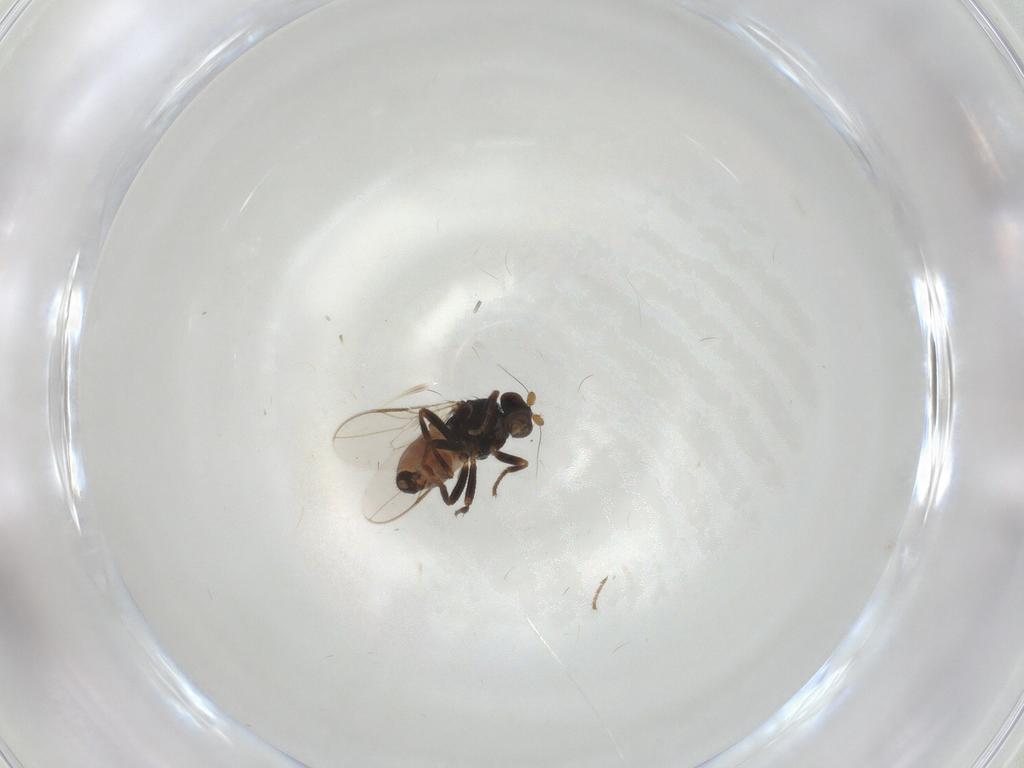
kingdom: Animalia
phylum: Arthropoda
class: Insecta
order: Diptera
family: Sphaeroceridae
